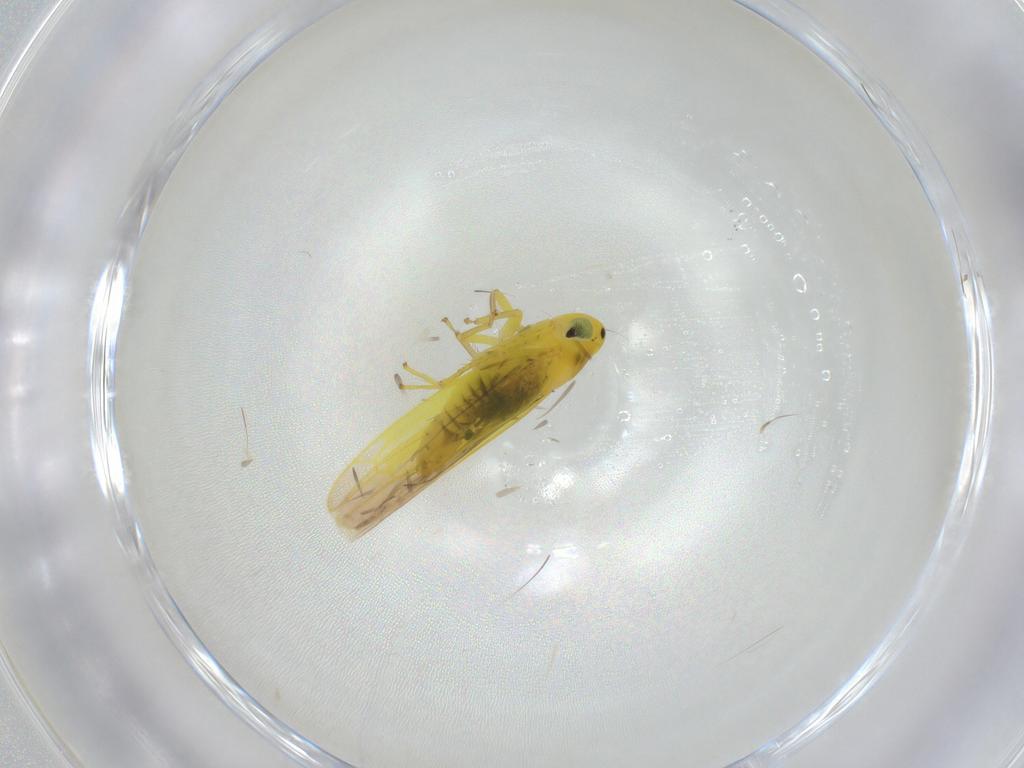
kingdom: Animalia
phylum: Arthropoda
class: Insecta
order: Hemiptera
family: Cicadellidae
